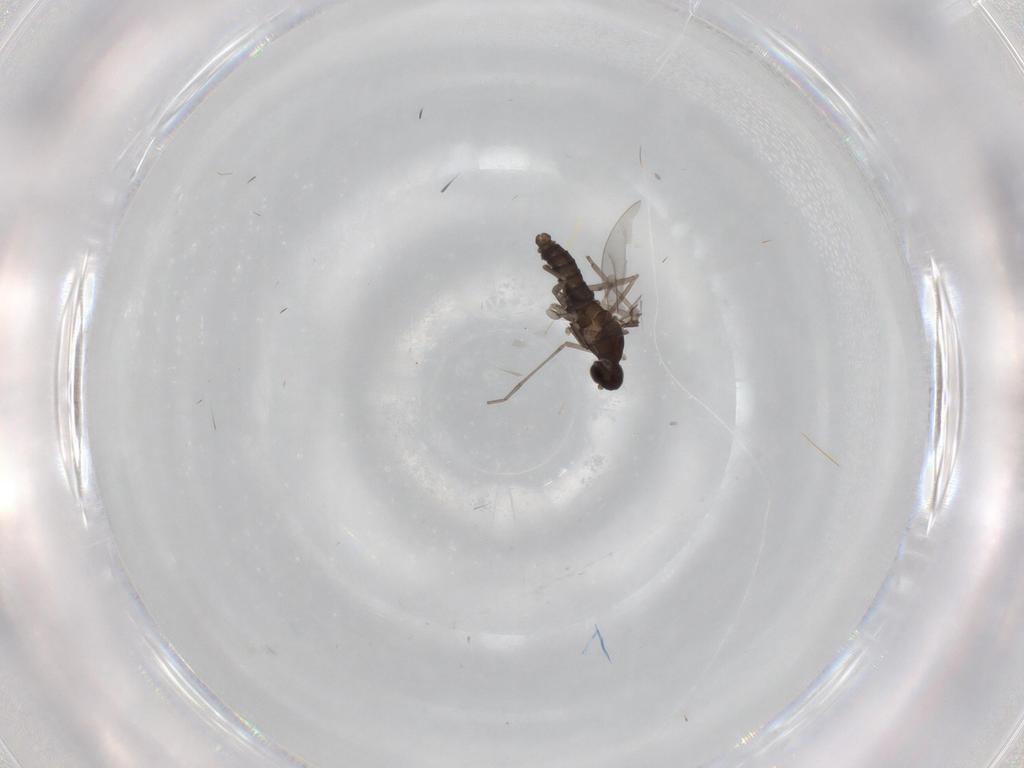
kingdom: Animalia
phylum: Arthropoda
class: Insecta
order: Diptera
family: Cecidomyiidae
